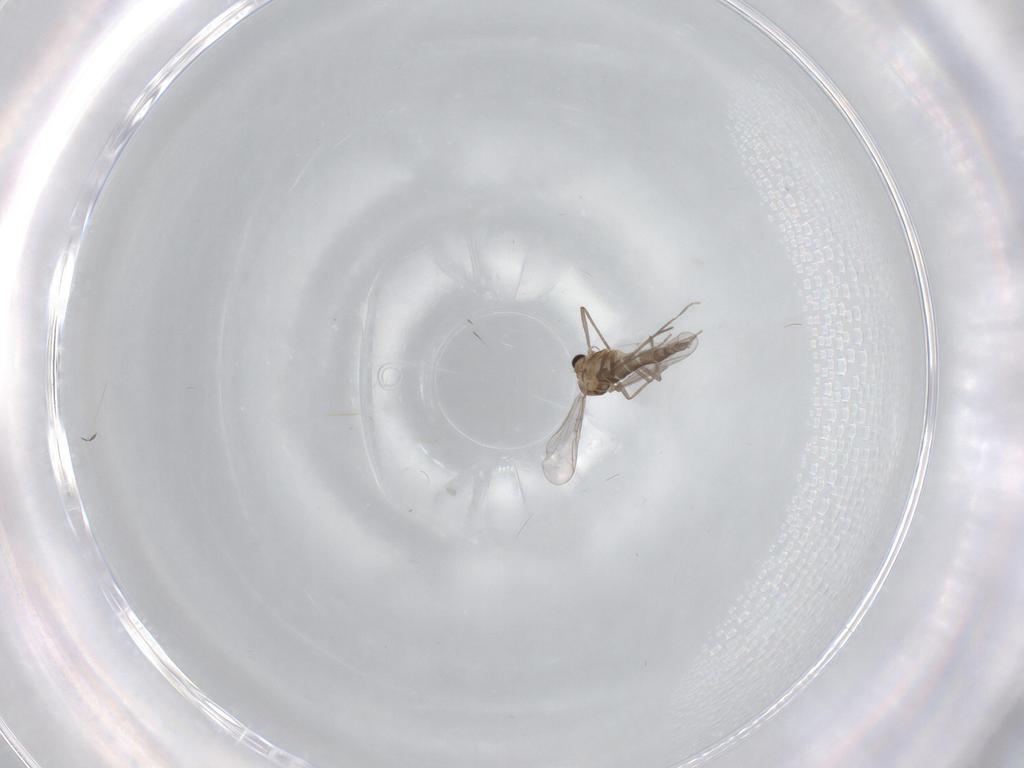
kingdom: Animalia
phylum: Arthropoda
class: Insecta
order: Diptera
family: Chironomidae
